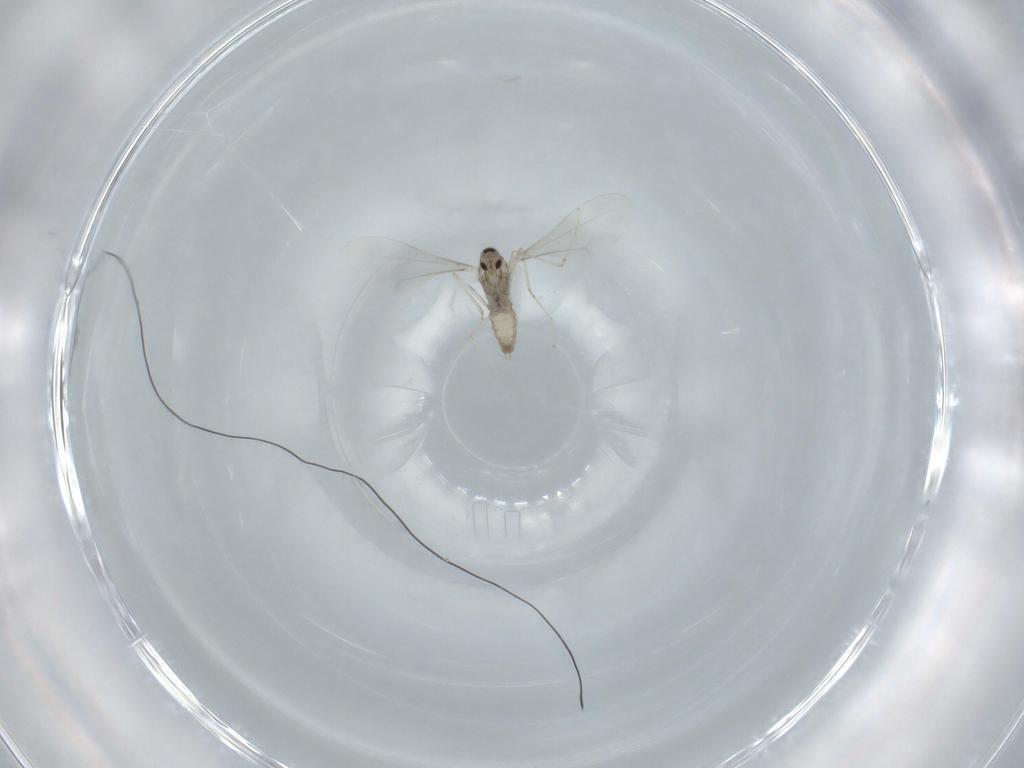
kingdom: Animalia
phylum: Arthropoda
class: Insecta
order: Diptera
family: Cecidomyiidae
